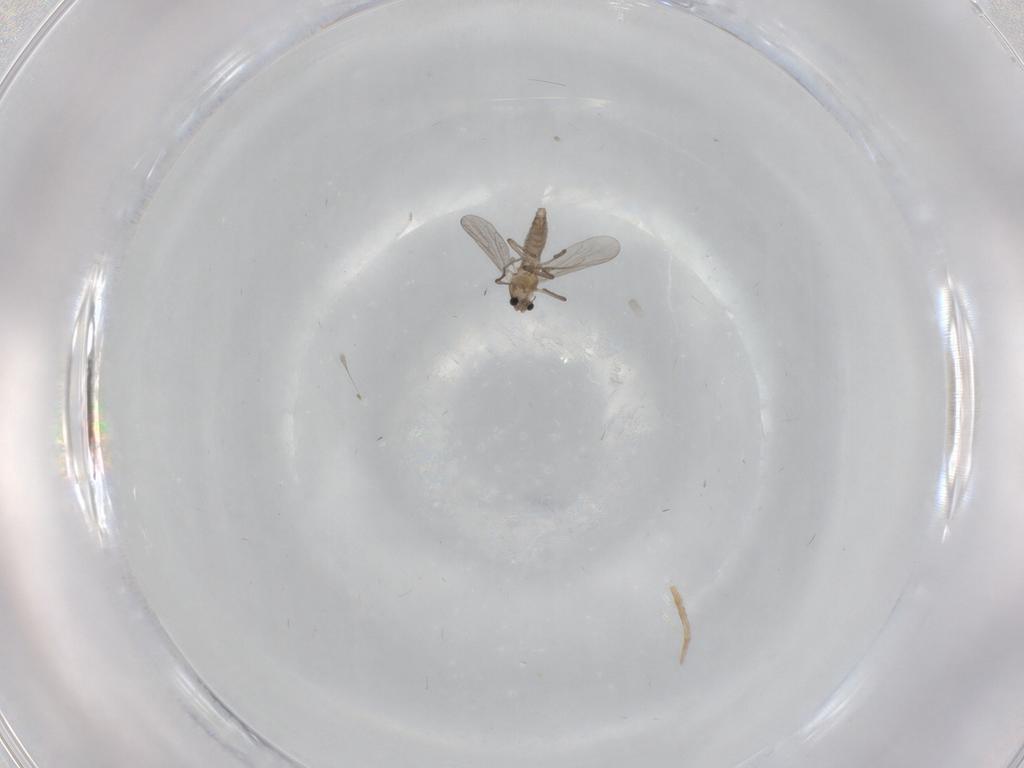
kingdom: Animalia
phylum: Arthropoda
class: Insecta
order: Diptera
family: Chironomidae
